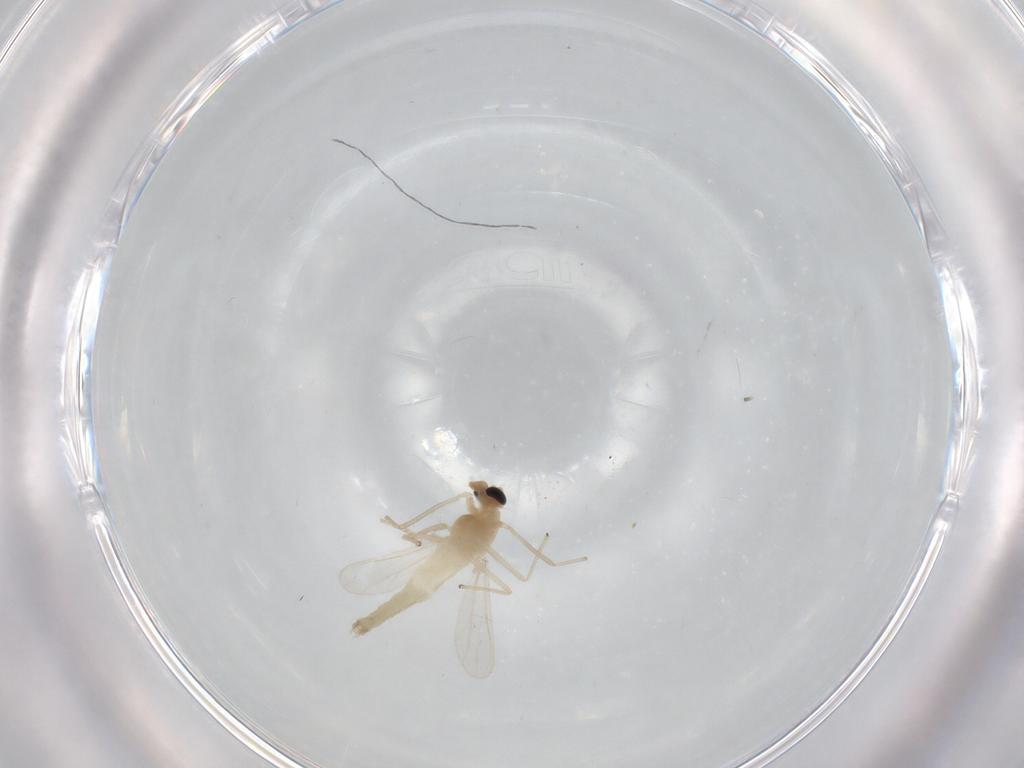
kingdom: Animalia
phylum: Arthropoda
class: Insecta
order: Diptera
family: Chironomidae
